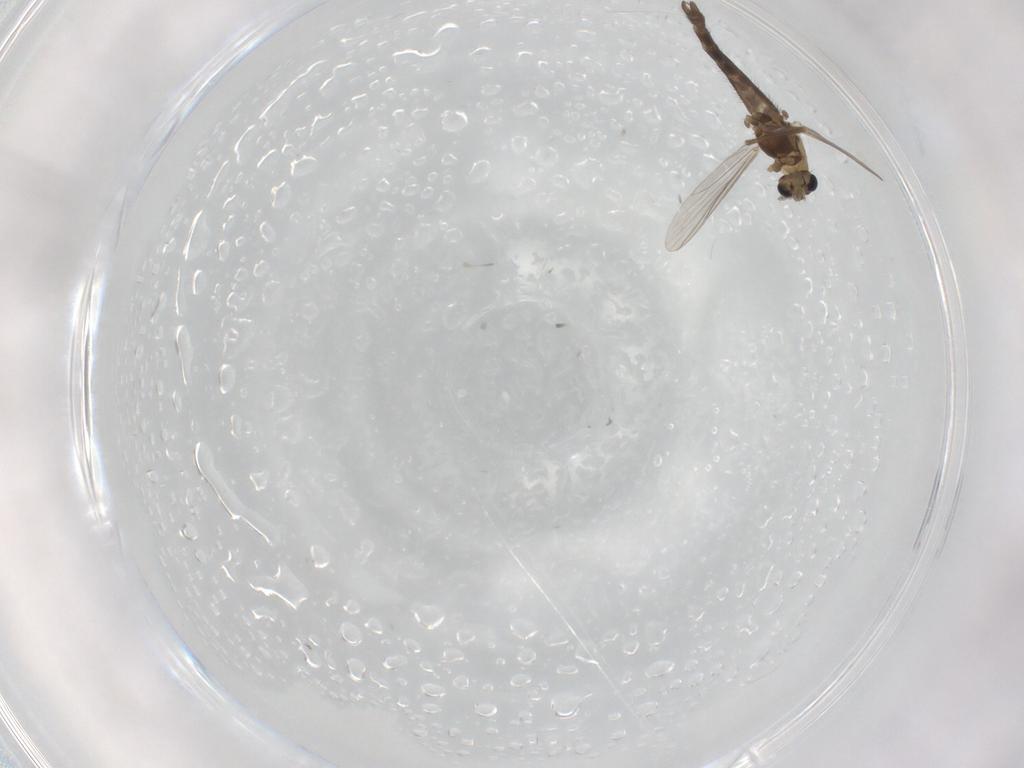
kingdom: Animalia
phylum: Arthropoda
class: Insecta
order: Diptera
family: Chironomidae
